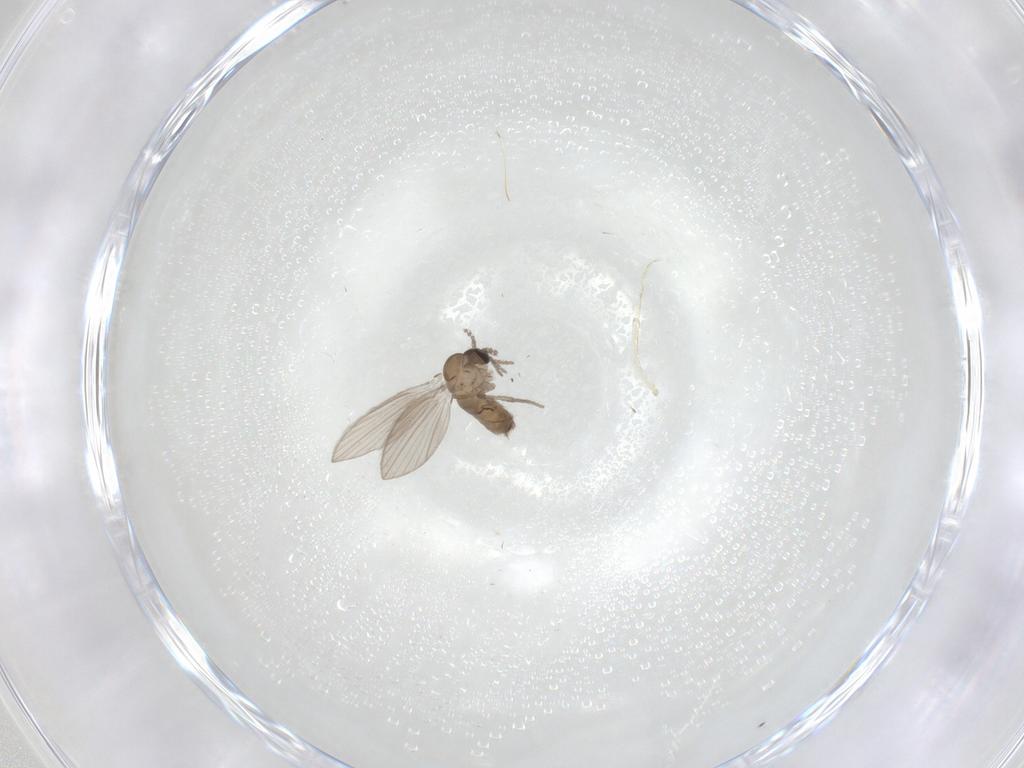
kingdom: Animalia
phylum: Arthropoda
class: Insecta
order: Diptera
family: Psychodidae
